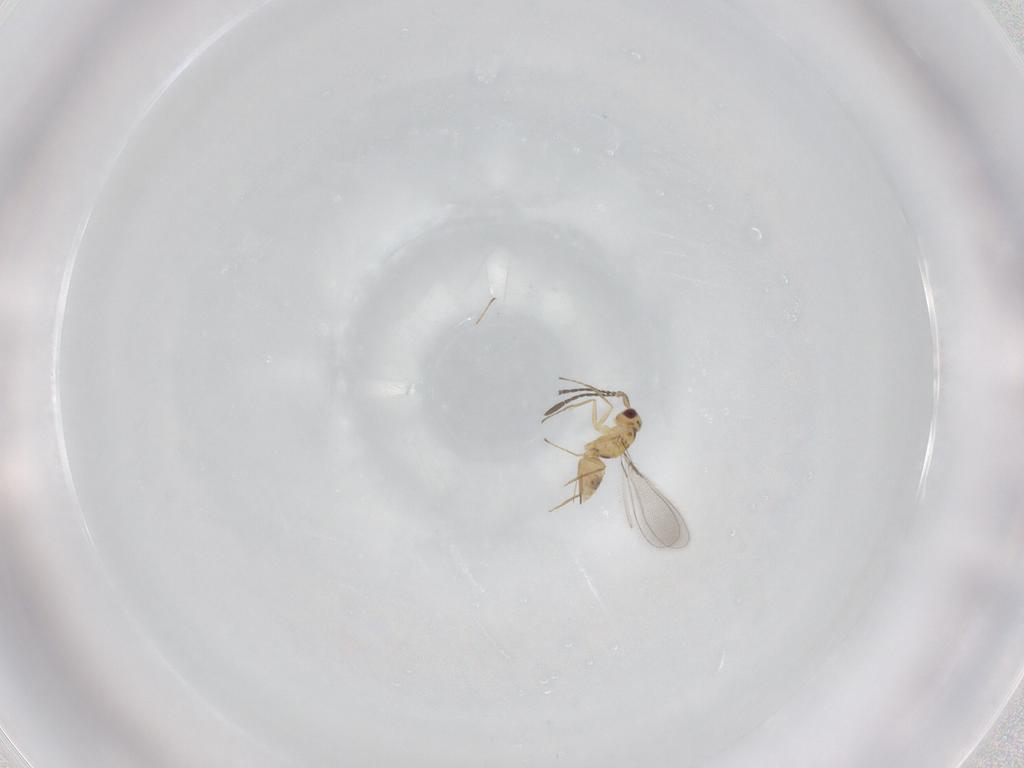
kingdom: Animalia
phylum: Arthropoda
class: Insecta
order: Hymenoptera
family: Mymaridae
